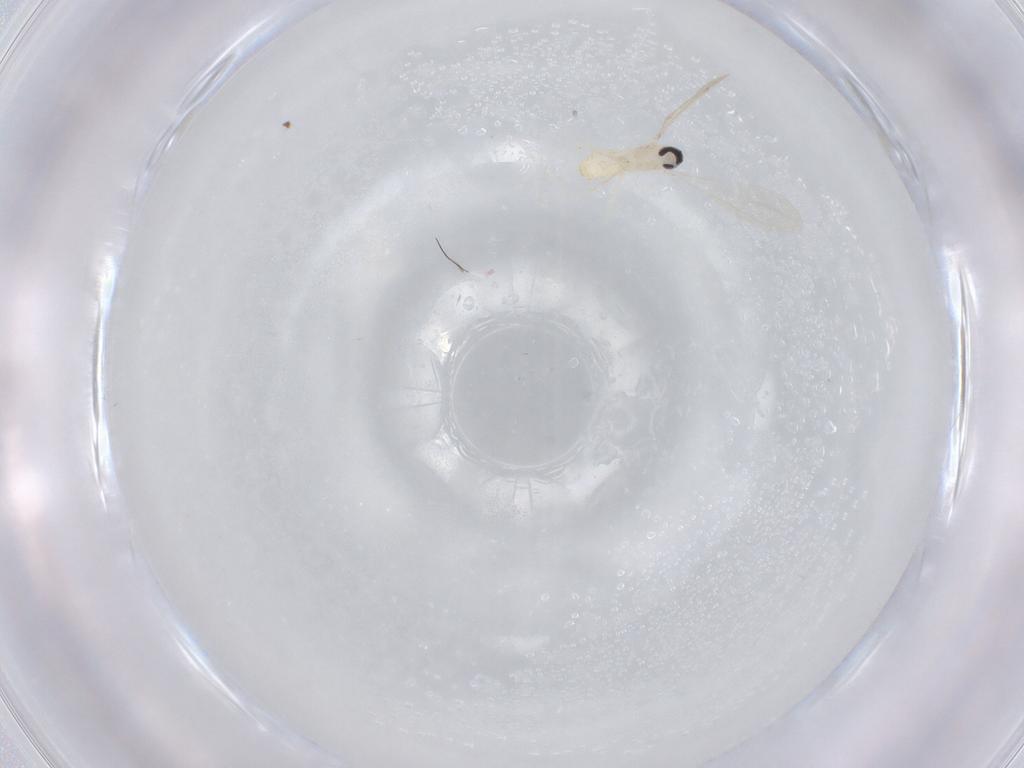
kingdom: Animalia
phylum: Arthropoda
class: Insecta
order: Diptera
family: Cecidomyiidae
